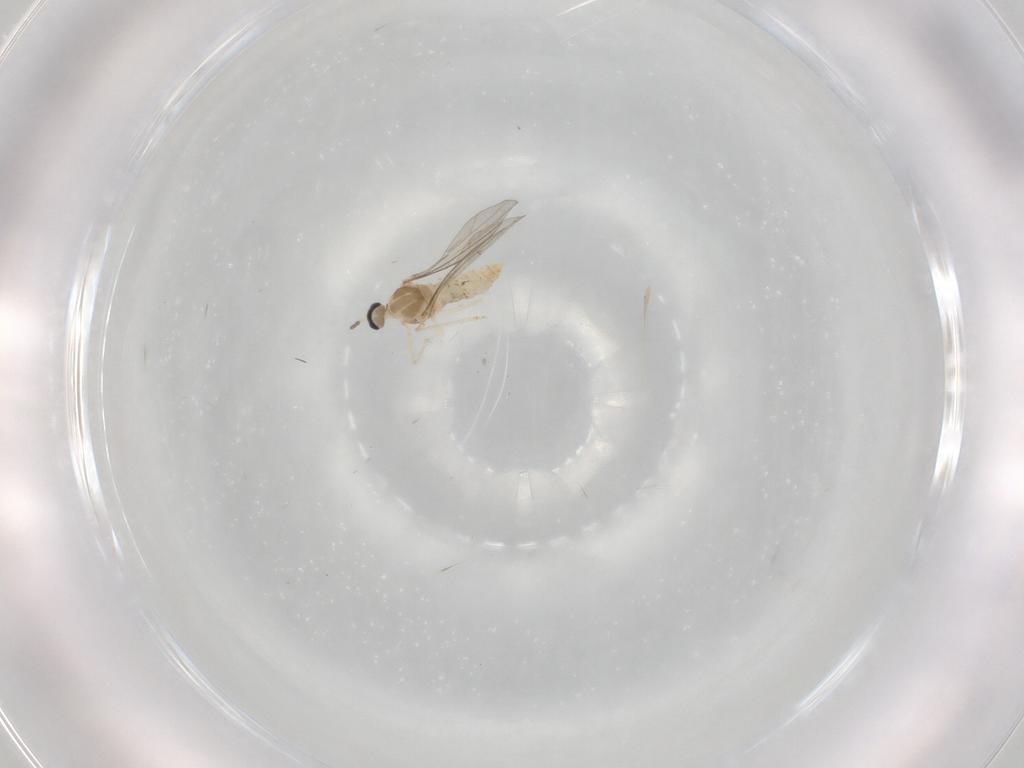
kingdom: Animalia
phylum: Arthropoda
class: Insecta
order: Diptera
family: Cecidomyiidae
